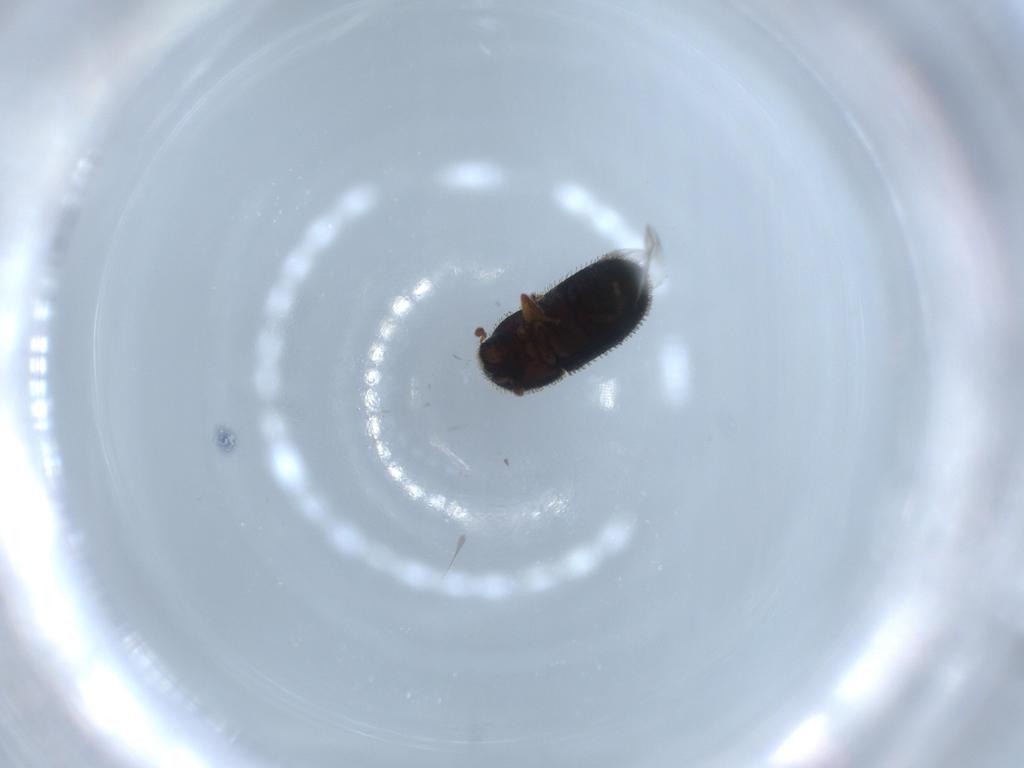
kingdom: Animalia
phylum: Arthropoda
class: Insecta
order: Coleoptera
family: Curculionidae
